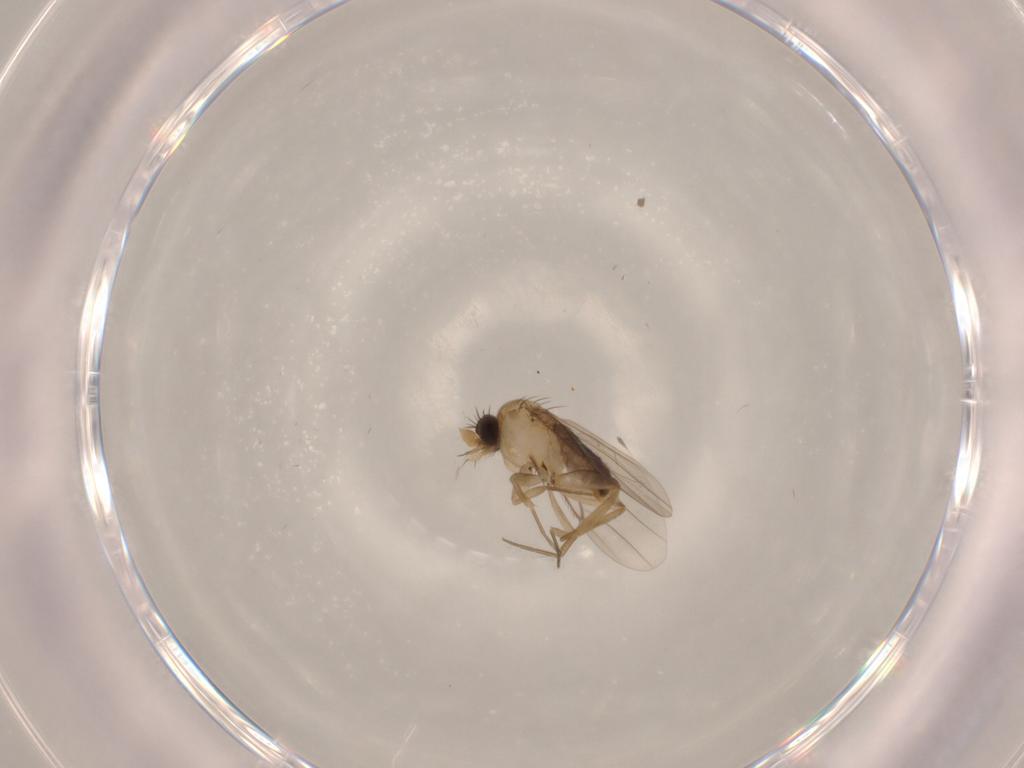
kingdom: Animalia
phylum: Arthropoda
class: Insecta
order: Diptera
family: Phoridae
